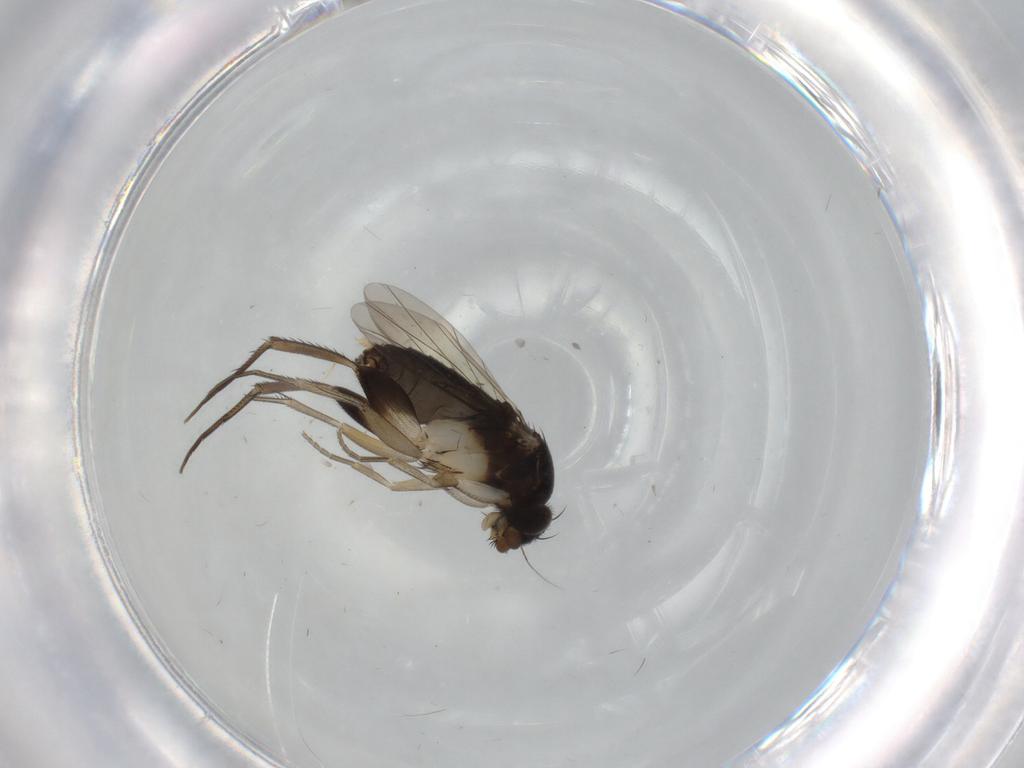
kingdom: Animalia
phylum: Arthropoda
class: Insecta
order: Diptera
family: Phoridae
